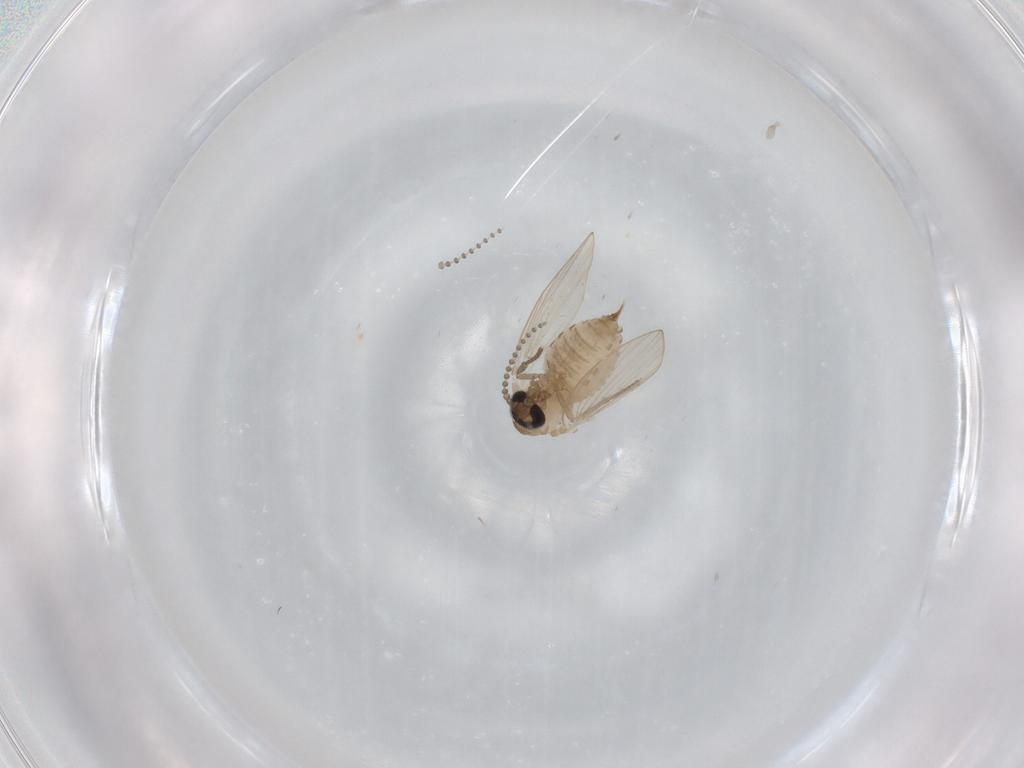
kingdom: Animalia
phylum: Arthropoda
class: Insecta
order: Diptera
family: Psychodidae
